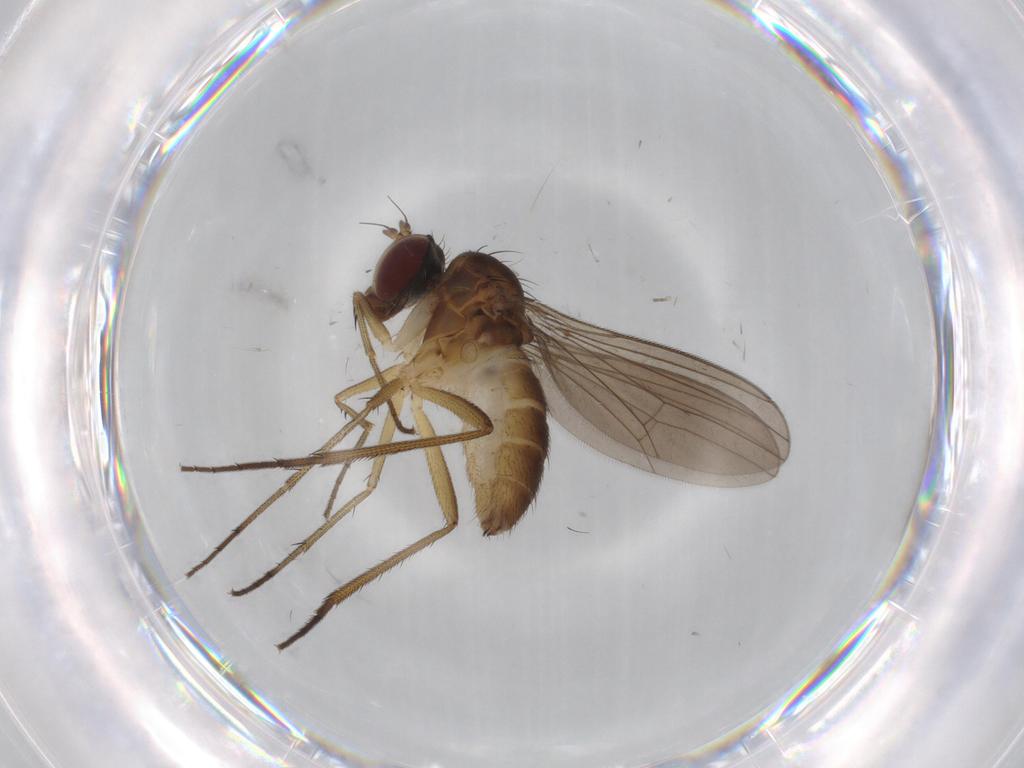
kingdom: Animalia
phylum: Arthropoda
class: Insecta
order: Diptera
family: Dolichopodidae
